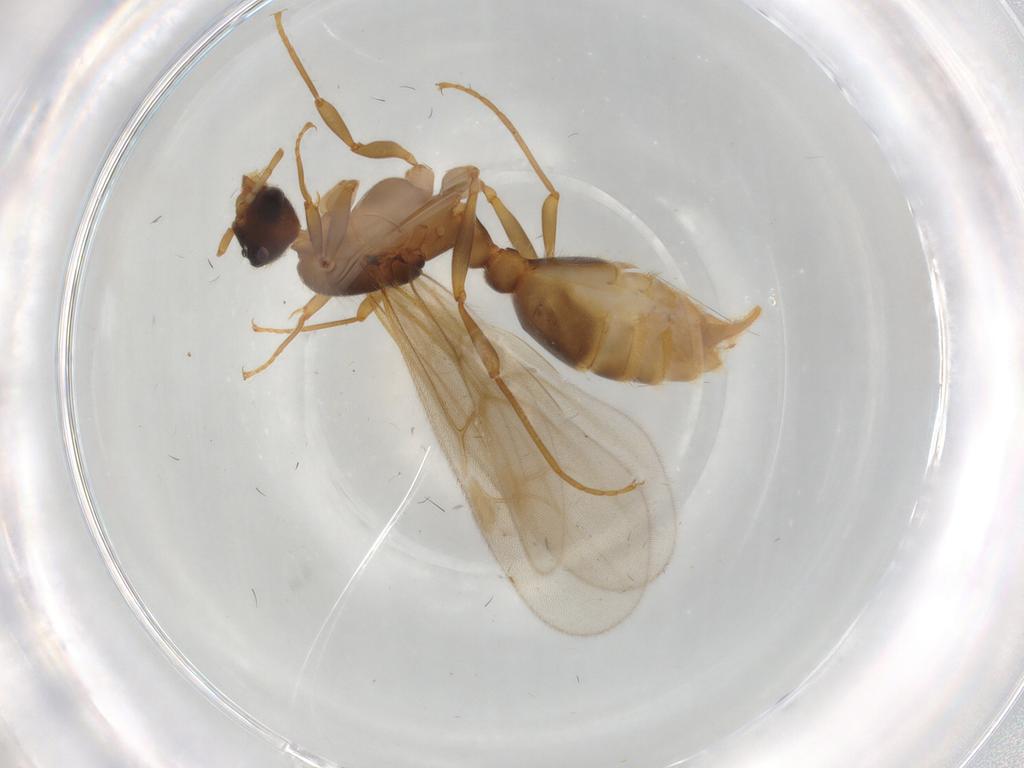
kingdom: Animalia
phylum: Arthropoda
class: Insecta
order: Hymenoptera
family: Formicidae
